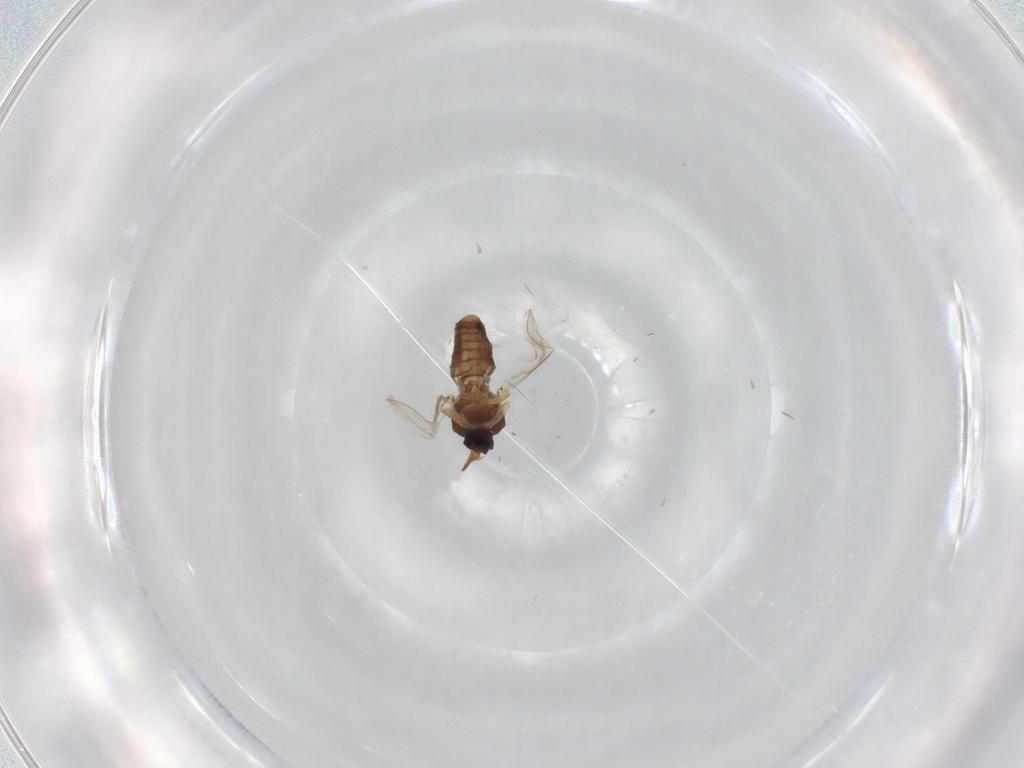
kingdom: Animalia
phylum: Arthropoda
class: Insecta
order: Diptera
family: Ceratopogonidae
